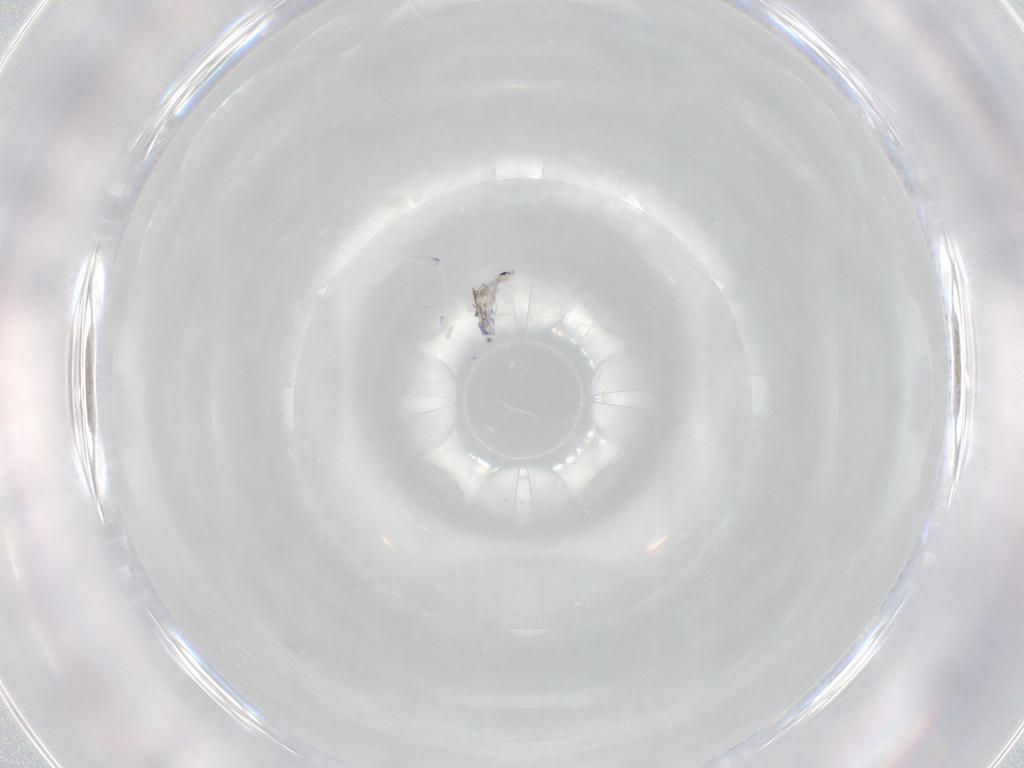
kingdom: Animalia
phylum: Arthropoda
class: Collembola
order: Entomobryomorpha
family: Entomobryidae
